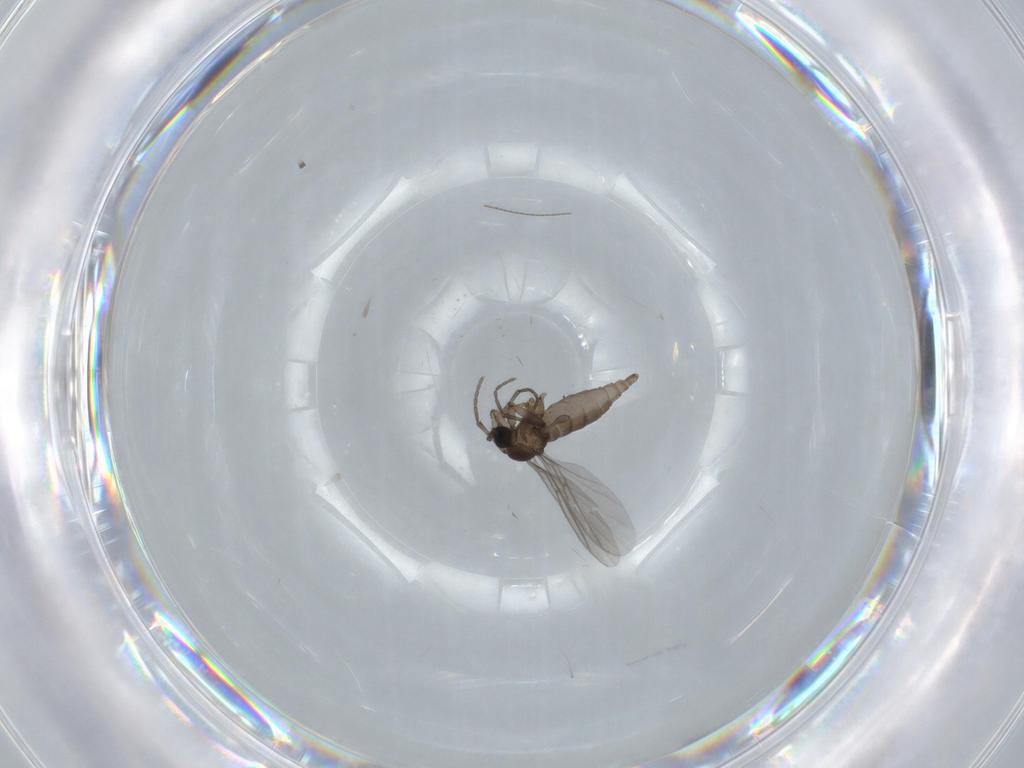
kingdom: Animalia
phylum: Arthropoda
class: Insecta
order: Diptera
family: Sciaridae
